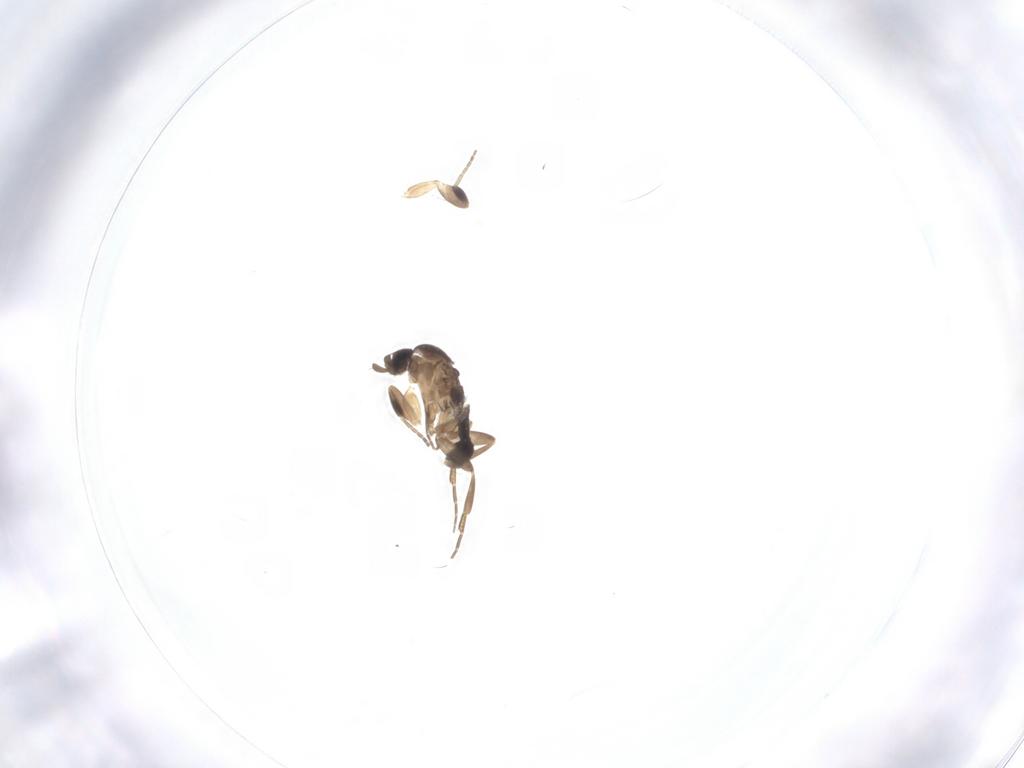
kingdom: Animalia
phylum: Arthropoda
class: Insecta
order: Diptera
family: Phoridae
